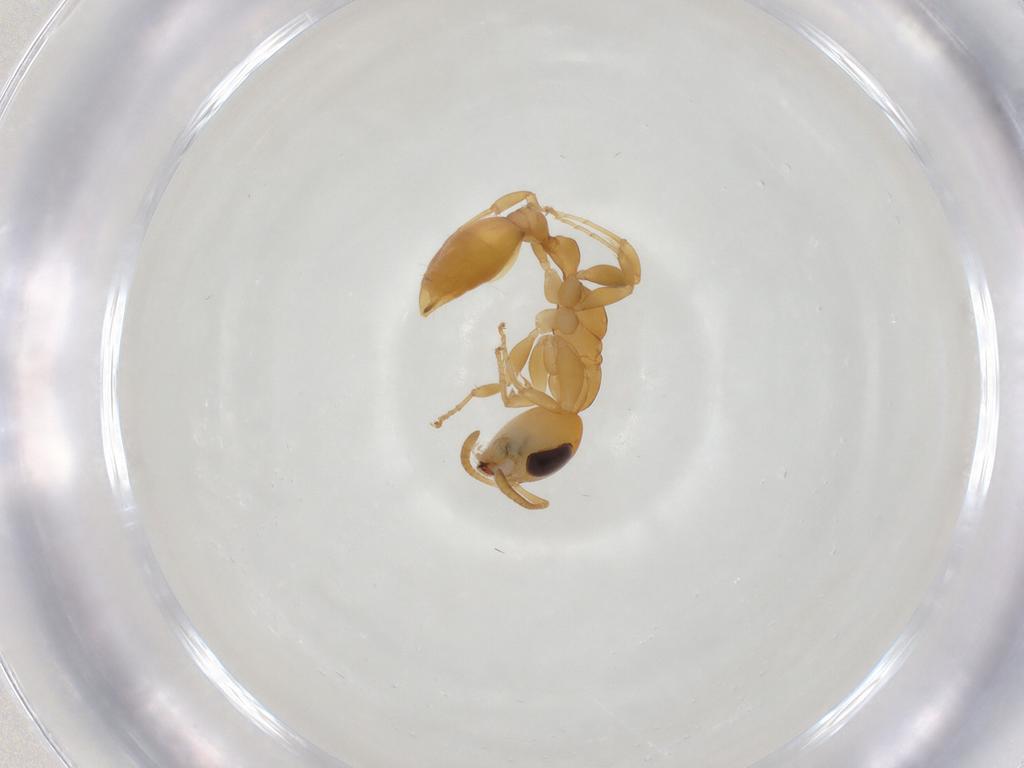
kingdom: Animalia
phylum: Arthropoda
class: Insecta
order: Hymenoptera
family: Formicidae
